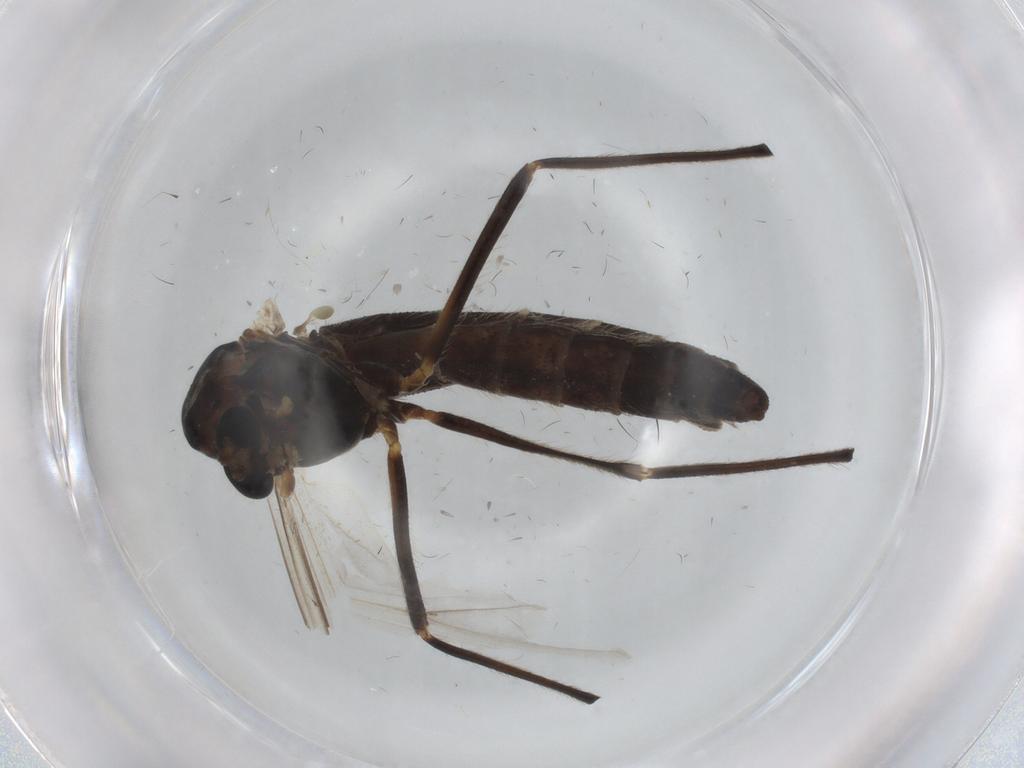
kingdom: Animalia
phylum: Arthropoda
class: Insecta
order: Diptera
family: Chironomidae
